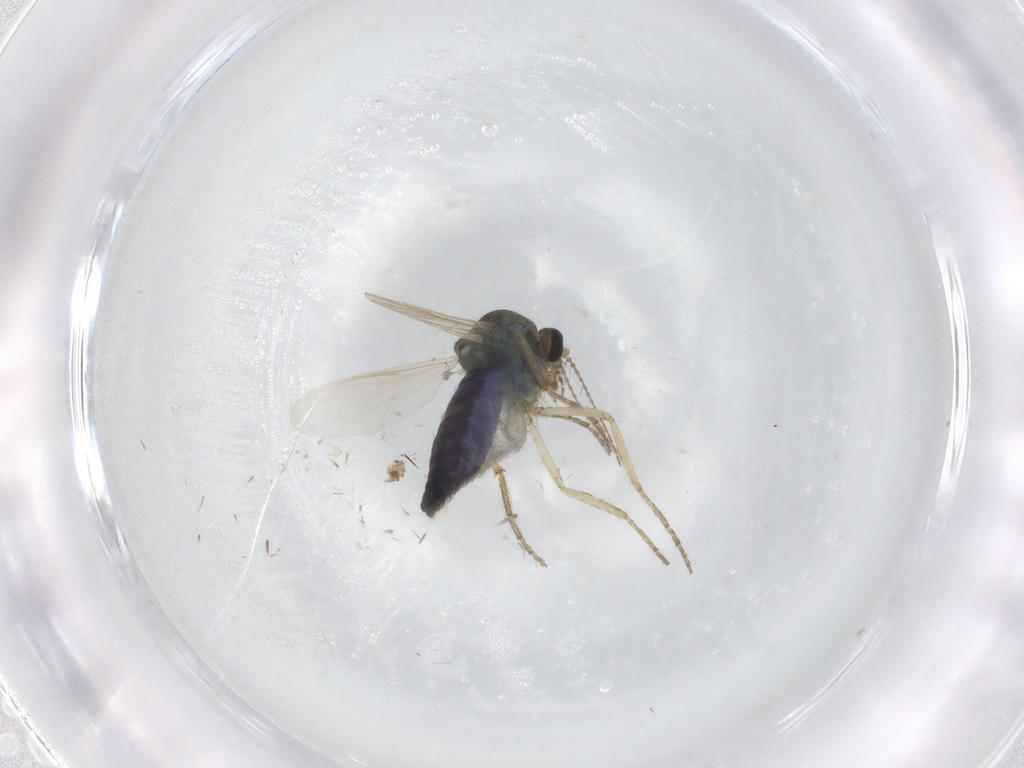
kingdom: Animalia
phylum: Arthropoda
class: Insecta
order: Diptera
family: Ceratopogonidae
